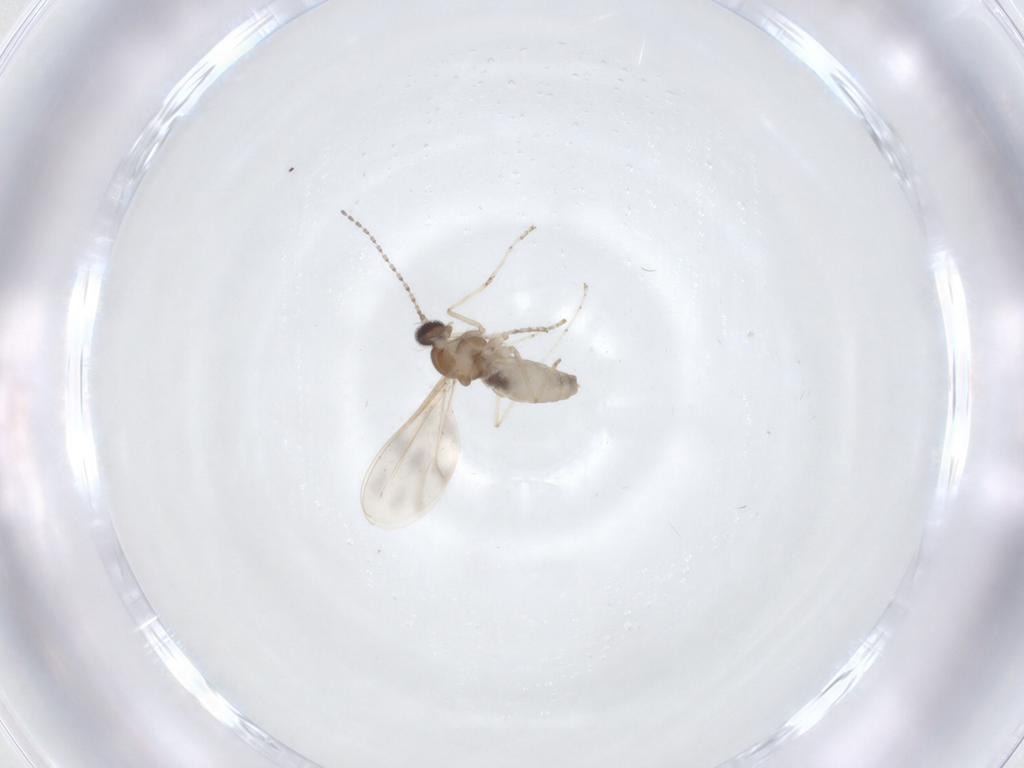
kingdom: Animalia
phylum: Arthropoda
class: Insecta
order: Diptera
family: Cecidomyiidae
